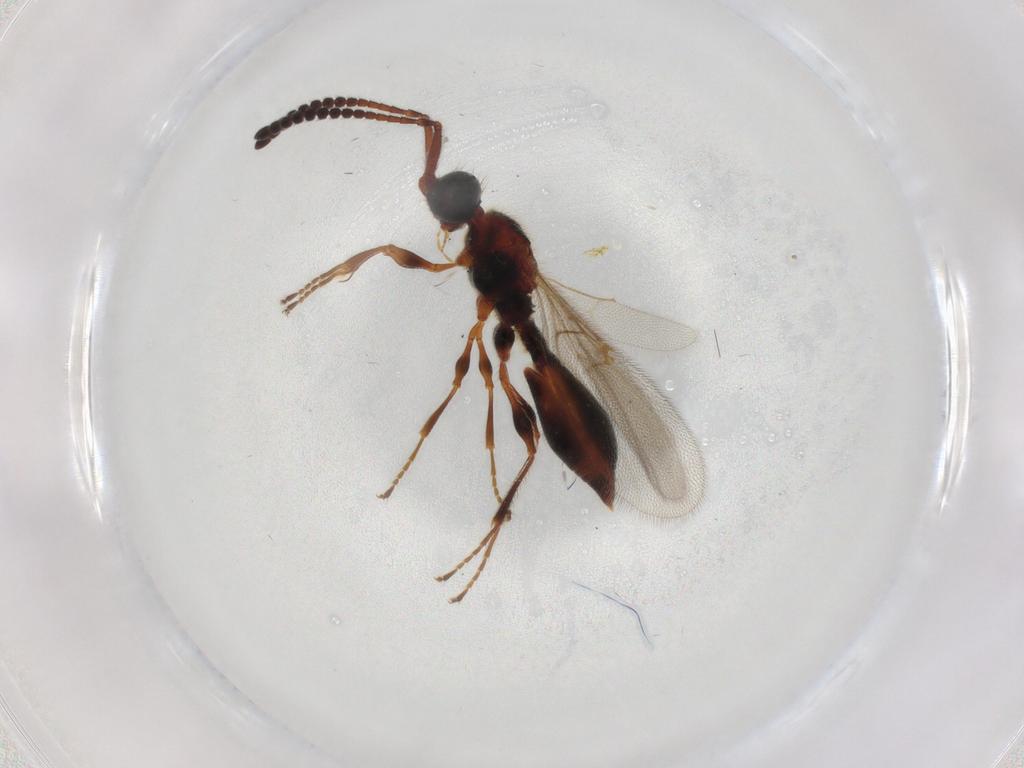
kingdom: Animalia
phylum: Arthropoda
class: Insecta
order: Hymenoptera
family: Diapriidae
